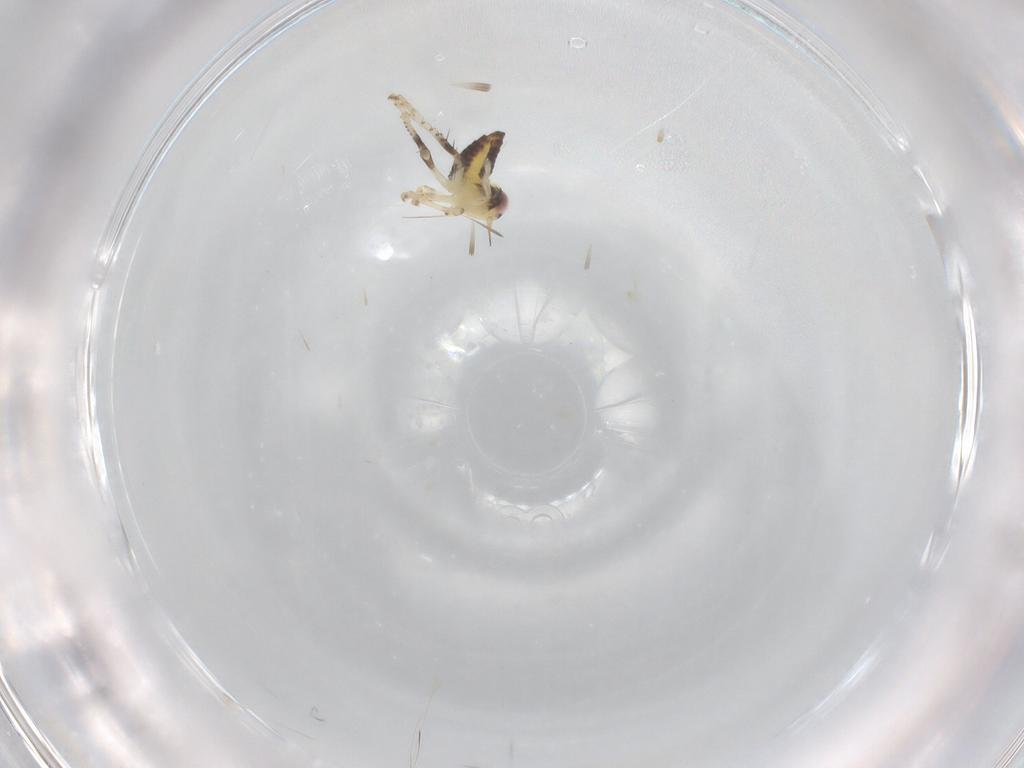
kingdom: Animalia
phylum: Arthropoda
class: Insecta
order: Hemiptera
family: Cicadellidae
